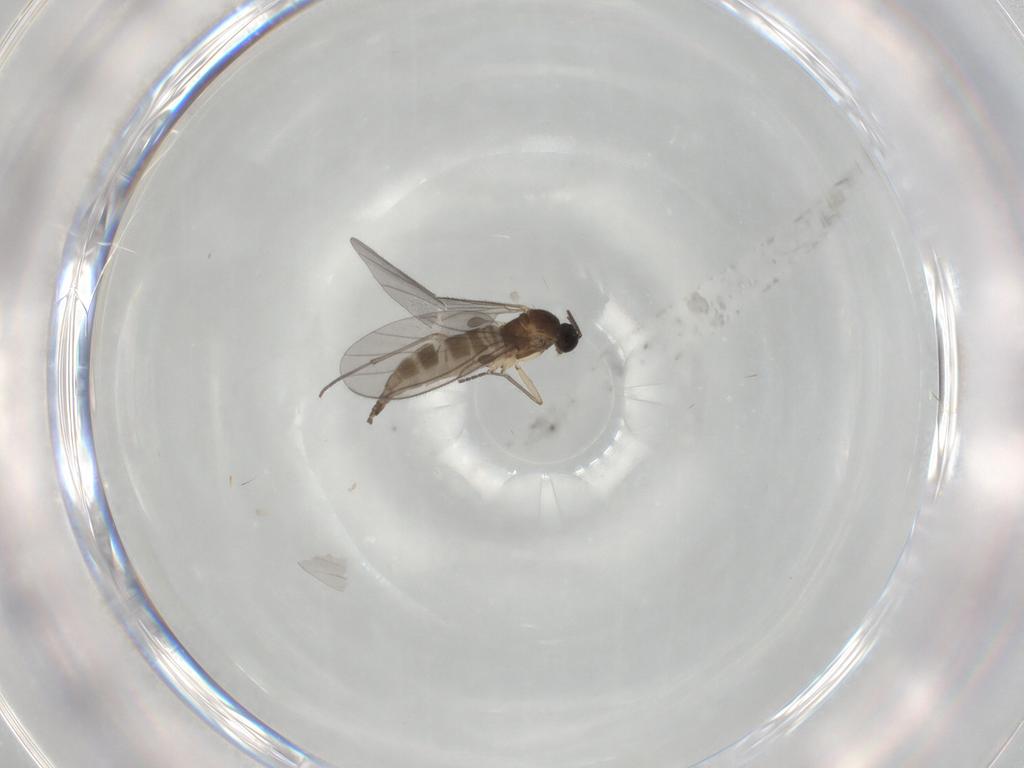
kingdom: Animalia
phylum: Arthropoda
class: Insecta
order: Diptera
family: Sciaridae
